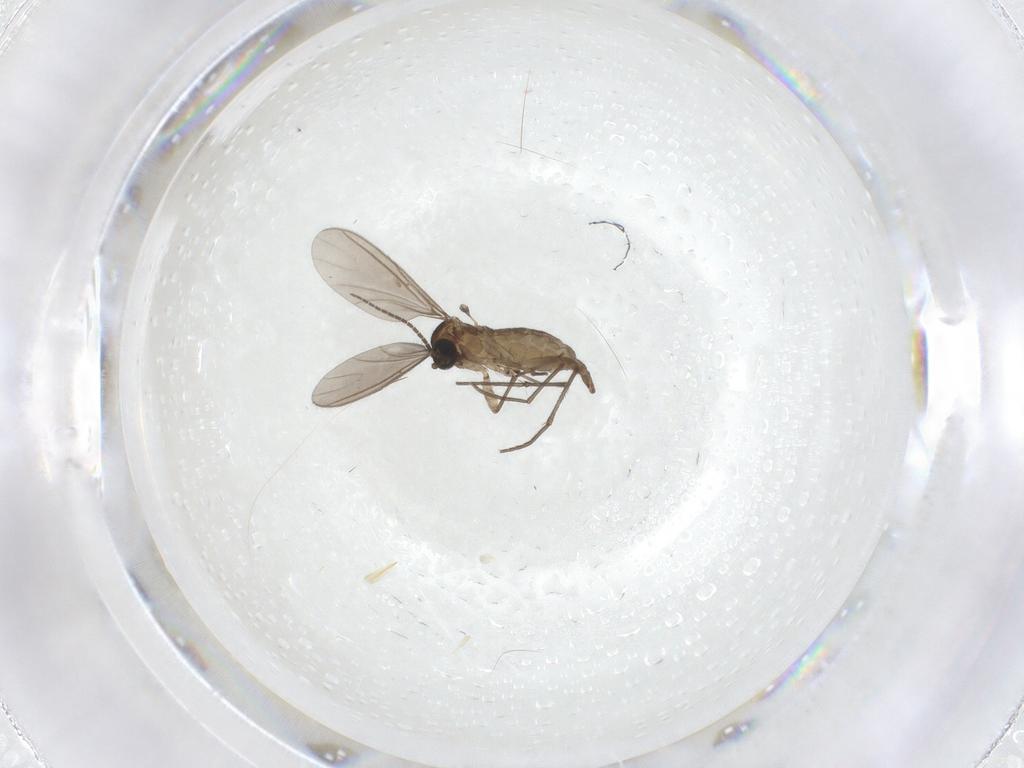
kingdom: Animalia
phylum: Arthropoda
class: Insecta
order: Diptera
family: Sciaridae
